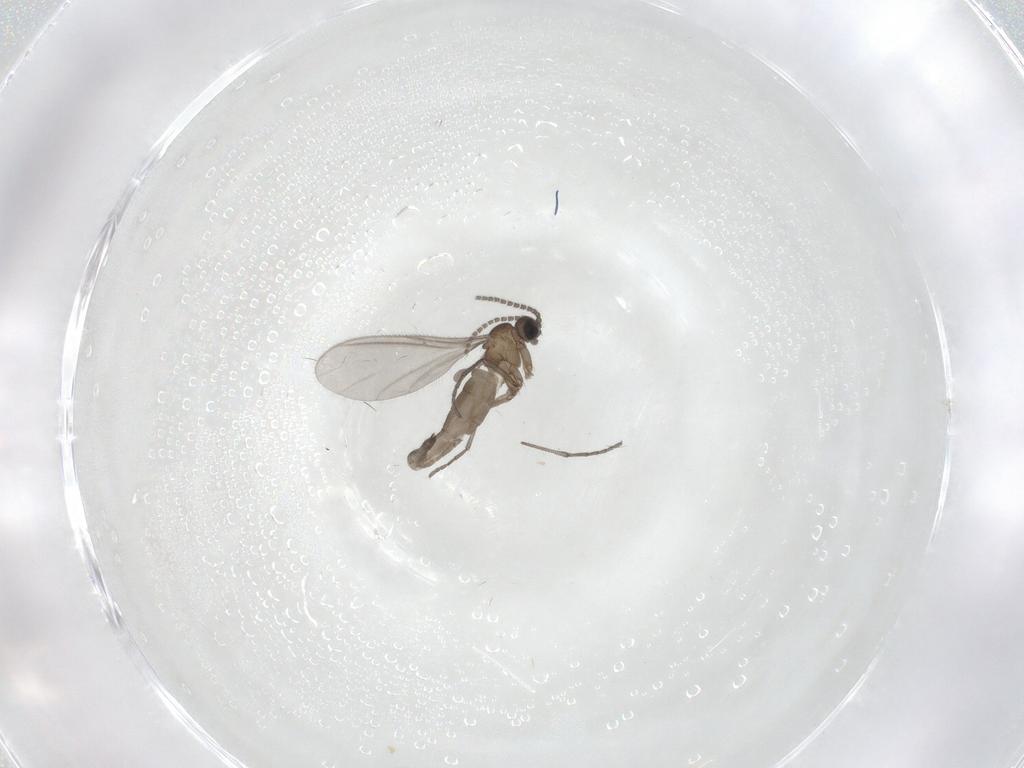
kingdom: Animalia
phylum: Arthropoda
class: Insecta
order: Diptera
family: Sciaridae
